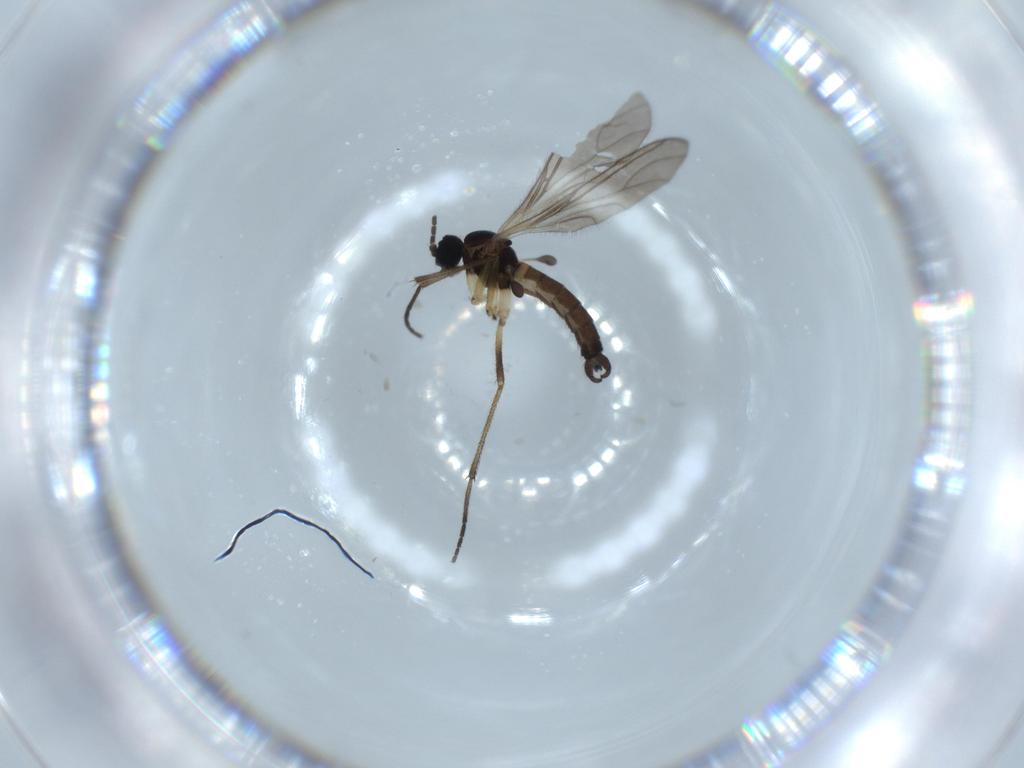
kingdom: Animalia
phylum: Arthropoda
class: Insecta
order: Diptera
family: Sciaridae
